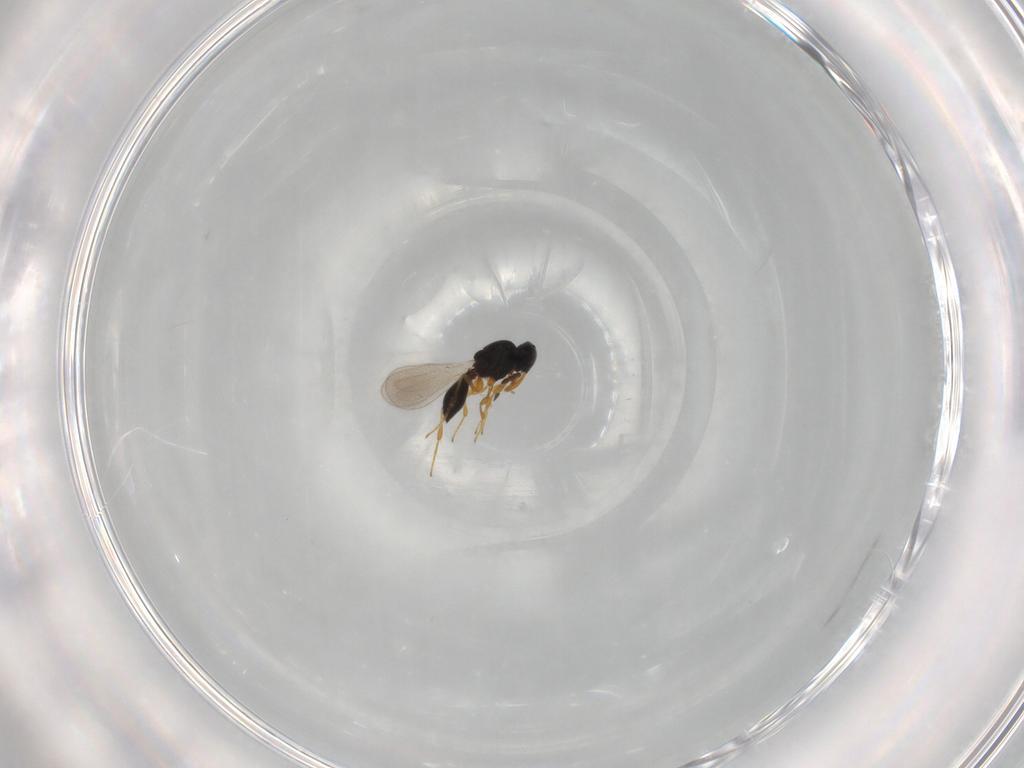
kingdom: Animalia
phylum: Arthropoda
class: Insecta
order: Hymenoptera
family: Platygastridae
